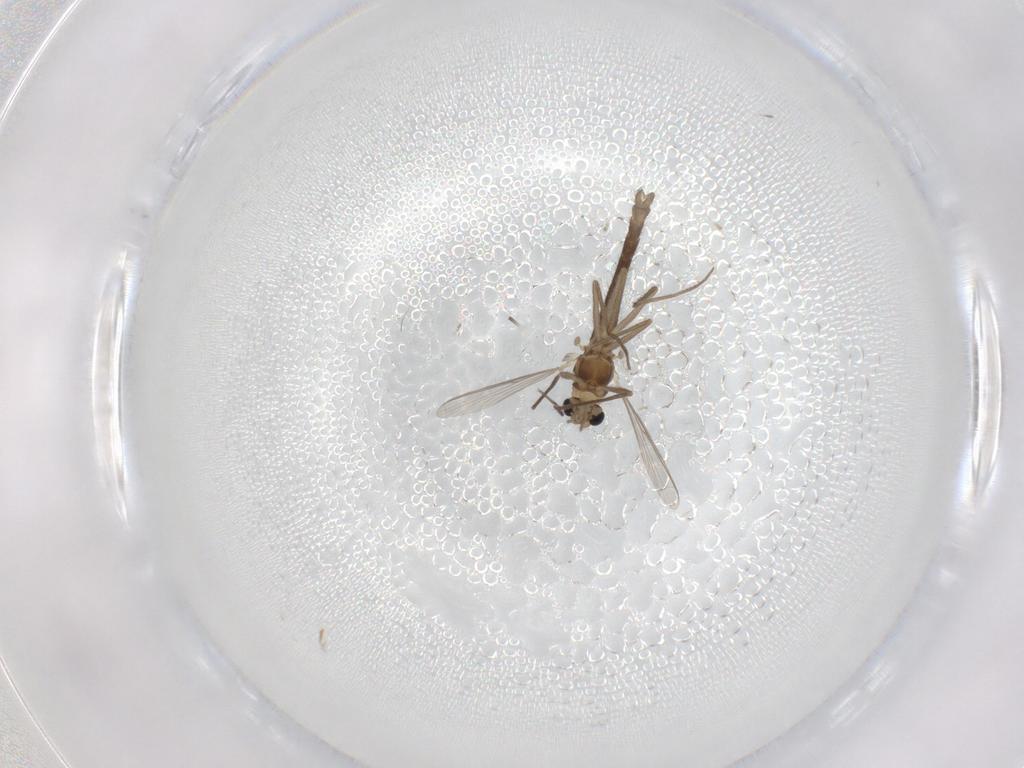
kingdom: Animalia
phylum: Arthropoda
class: Insecta
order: Diptera
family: Chironomidae
